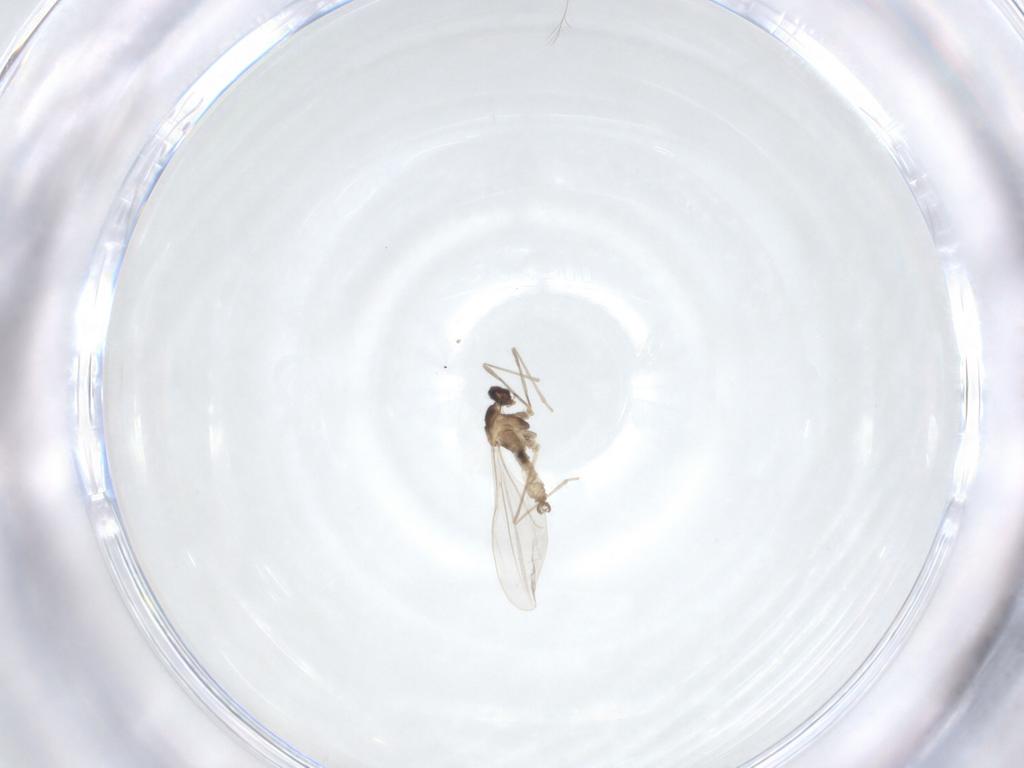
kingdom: Animalia
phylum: Arthropoda
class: Insecta
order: Diptera
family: Cecidomyiidae
